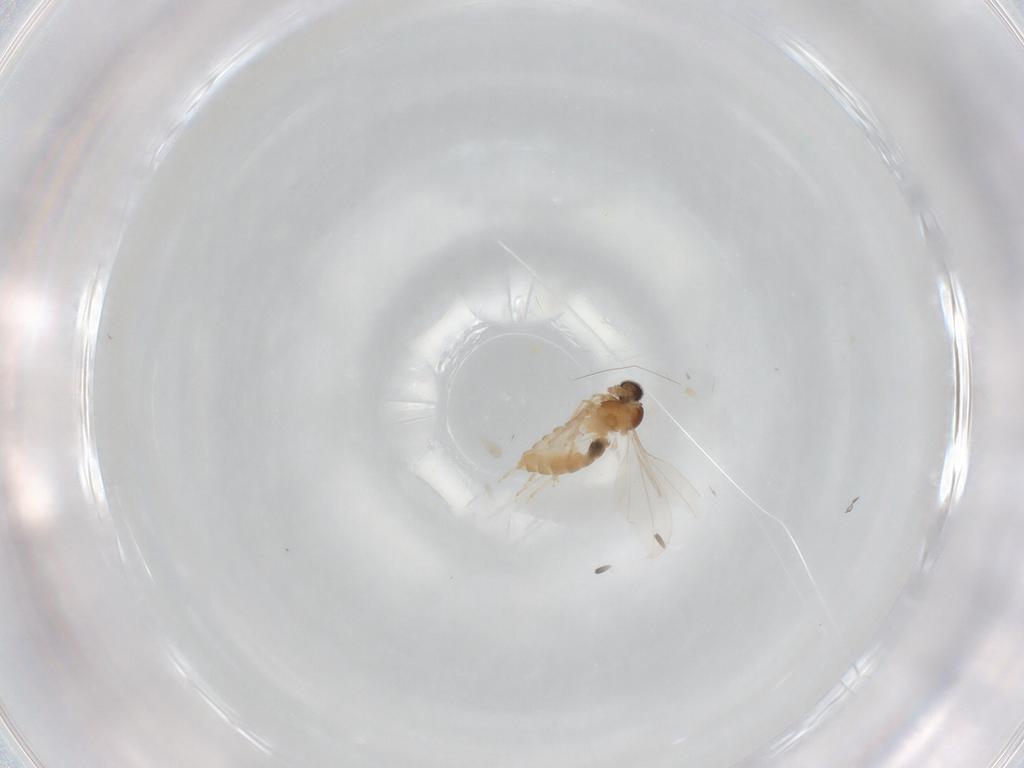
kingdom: Animalia
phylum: Arthropoda
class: Insecta
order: Diptera
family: Cecidomyiidae
